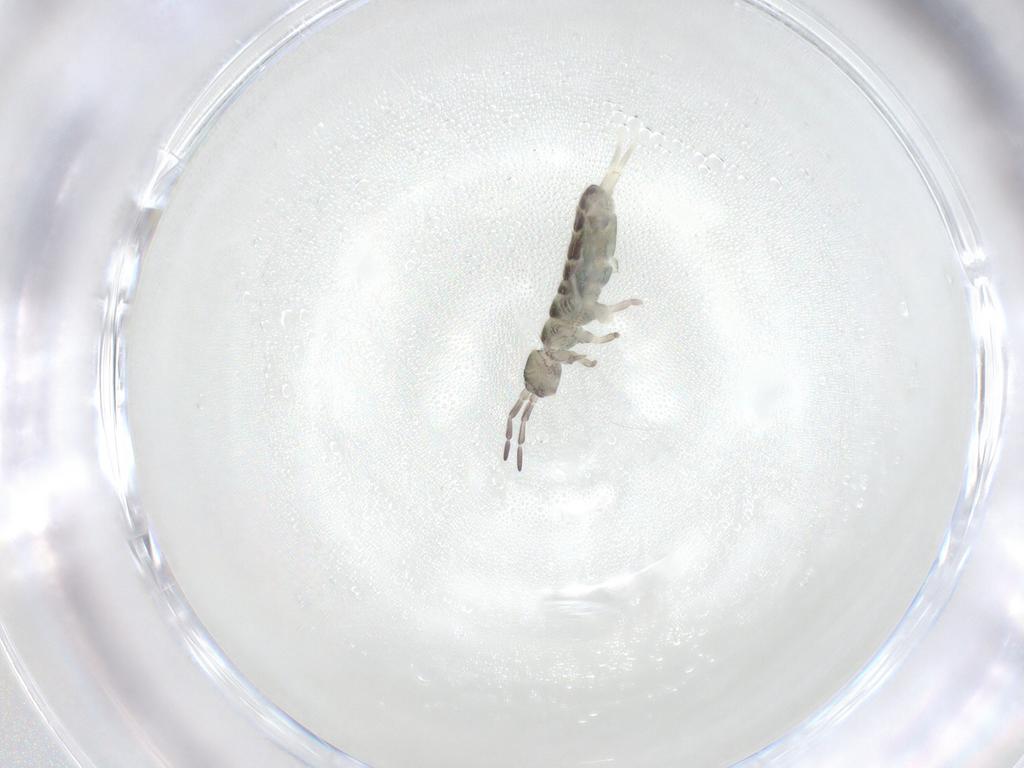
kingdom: Animalia
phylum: Arthropoda
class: Collembola
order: Entomobryomorpha
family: Isotomidae
